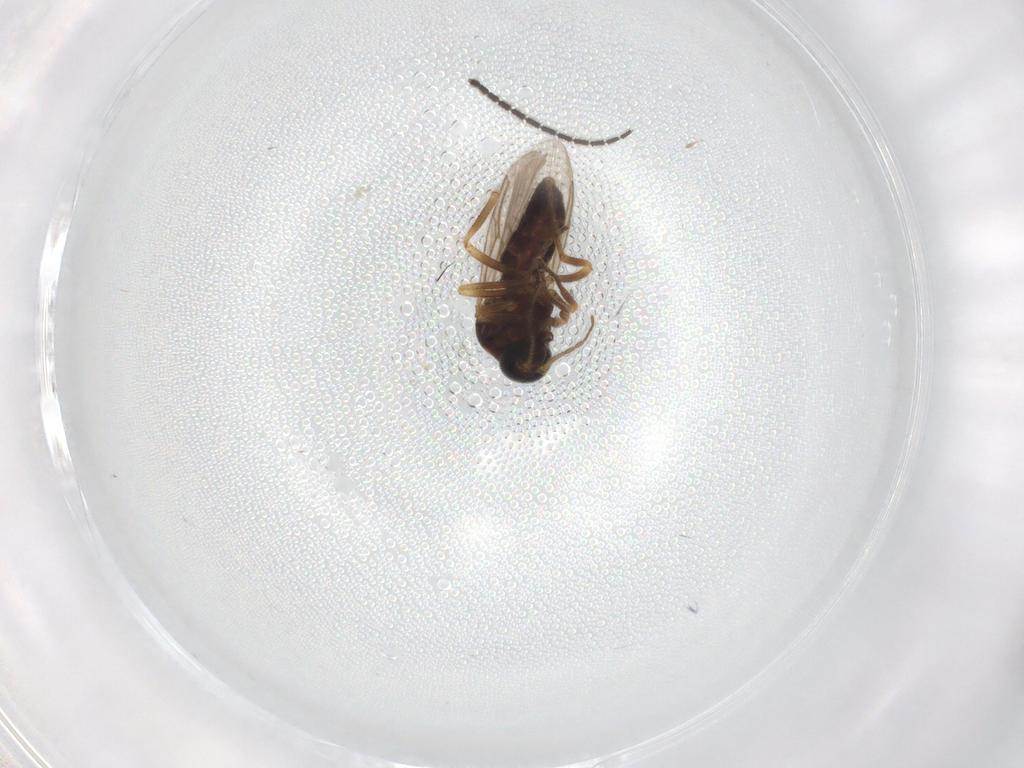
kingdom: Animalia
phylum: Arthropoda
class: Insecta
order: Diptera
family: Ceratopogonidae
